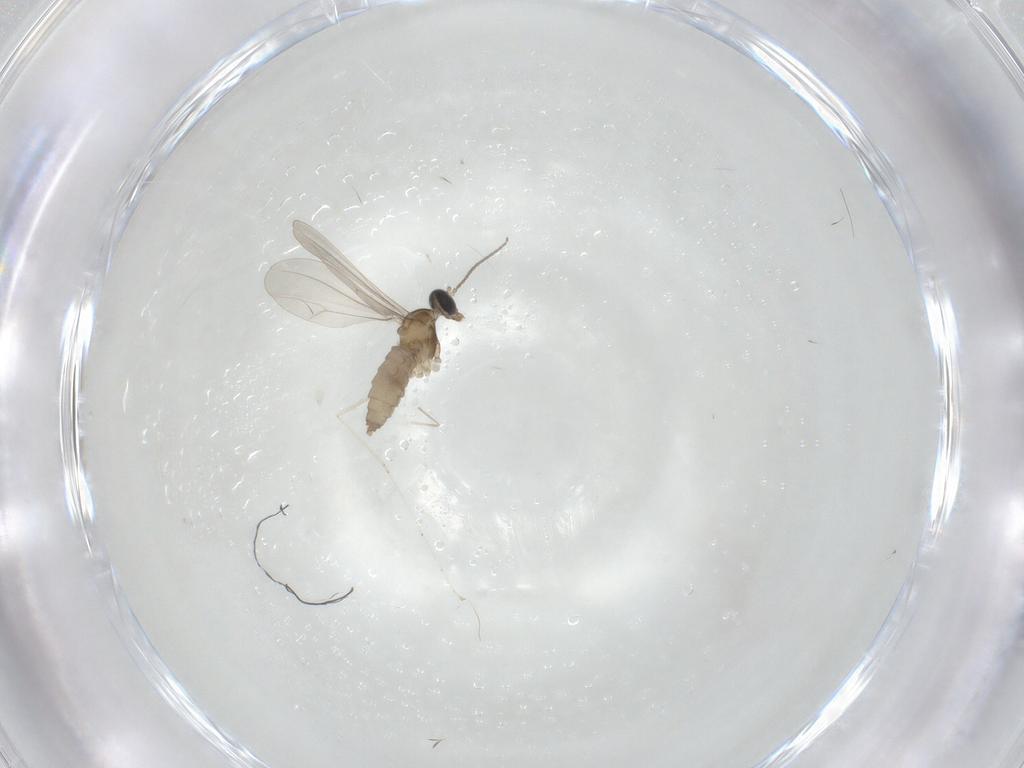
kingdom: Animalia
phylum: Arthropoda
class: Insecta
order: Diptera
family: Cecidomyiidae
